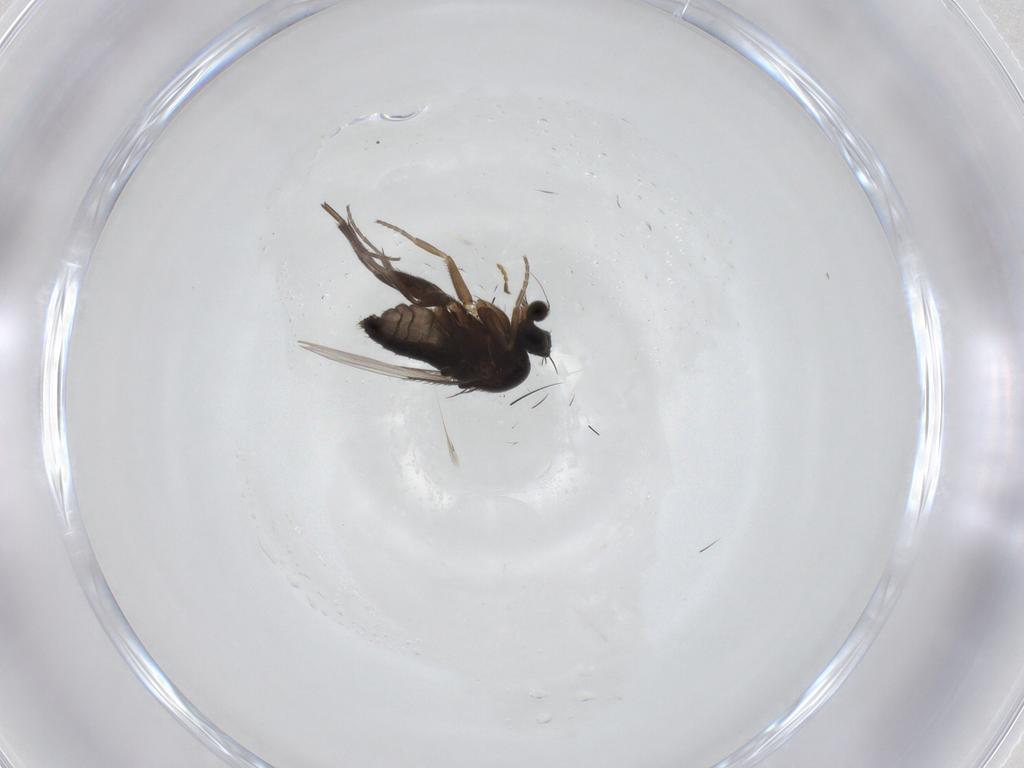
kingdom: Animalia
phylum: Arthropoda
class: Insecta
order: Diptera
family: Phoridae
